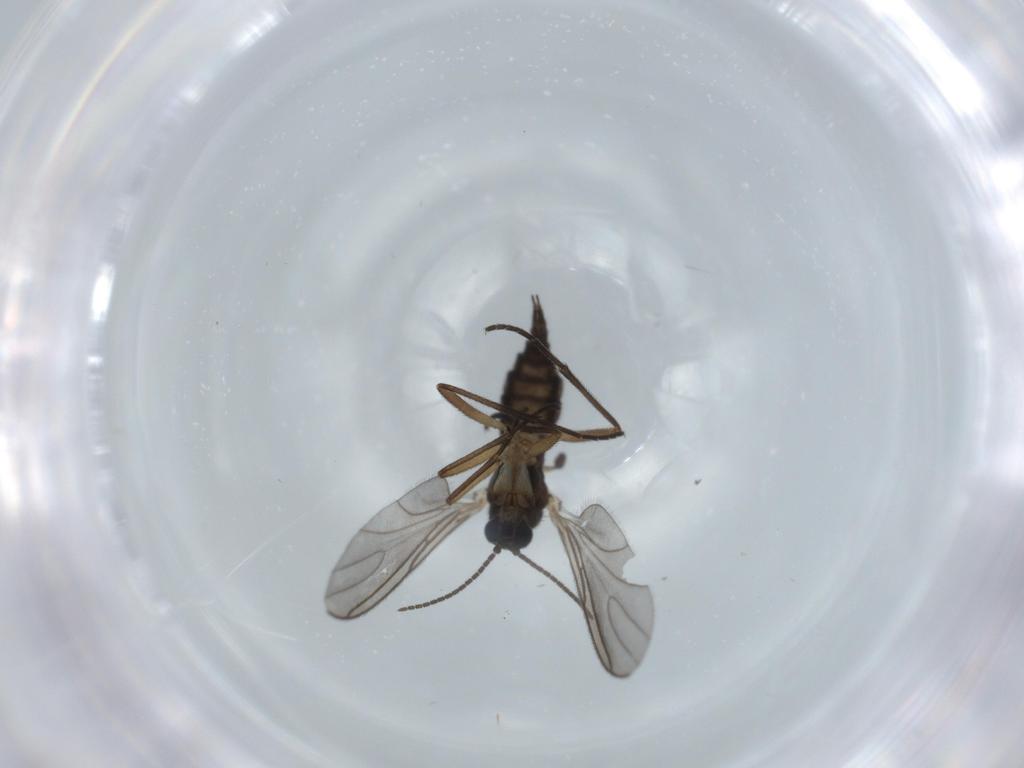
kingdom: Animalia
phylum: Arthropoda
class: Insecta
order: Diptera
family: Sciaridae
